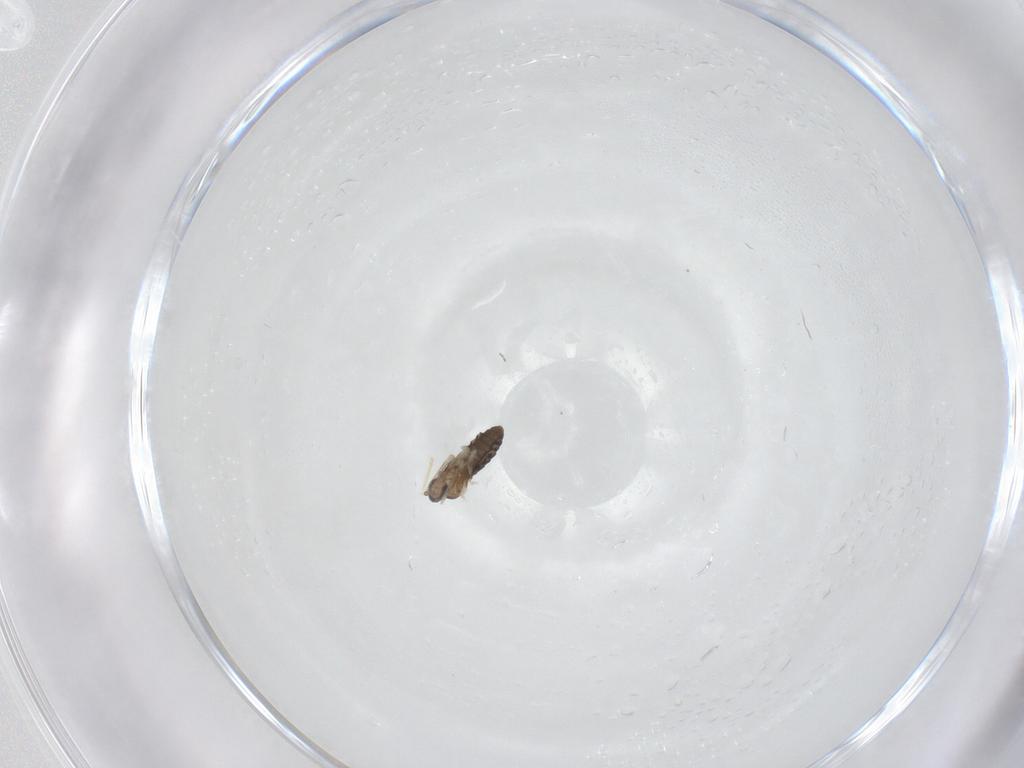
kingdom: Animalia
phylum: Arthropoda
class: Insecta
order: Diptera
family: Cecidomyiidae
